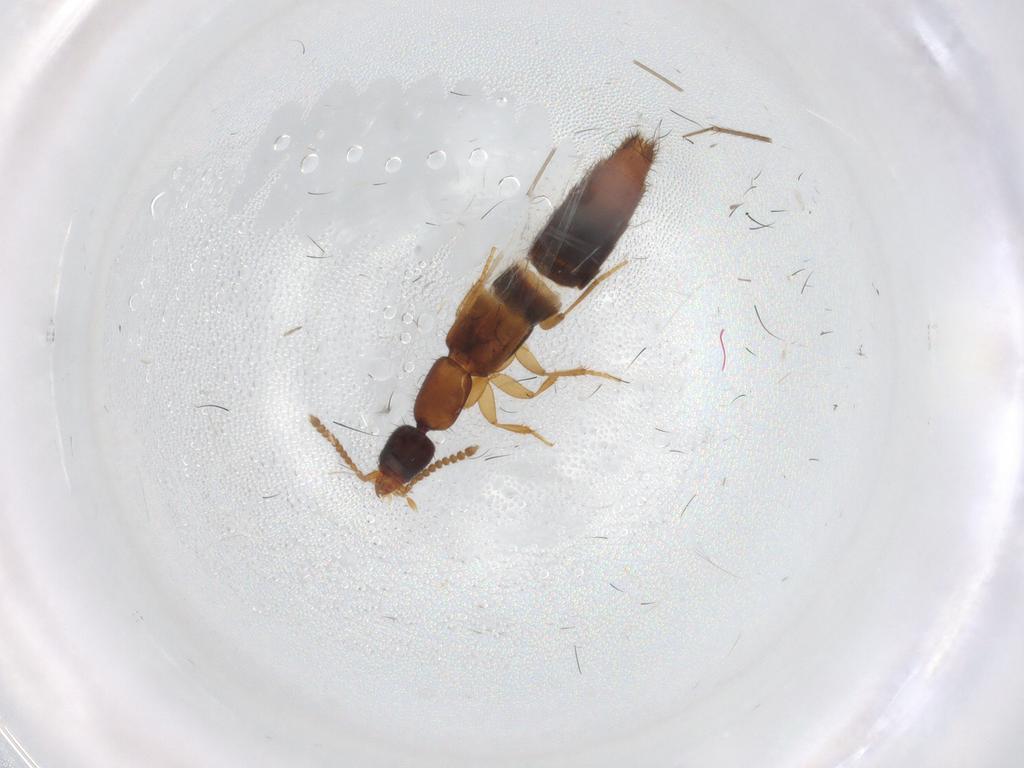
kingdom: Animalia
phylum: Arthropoda
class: Insecta
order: Coleoptera
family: Staphylinidae
